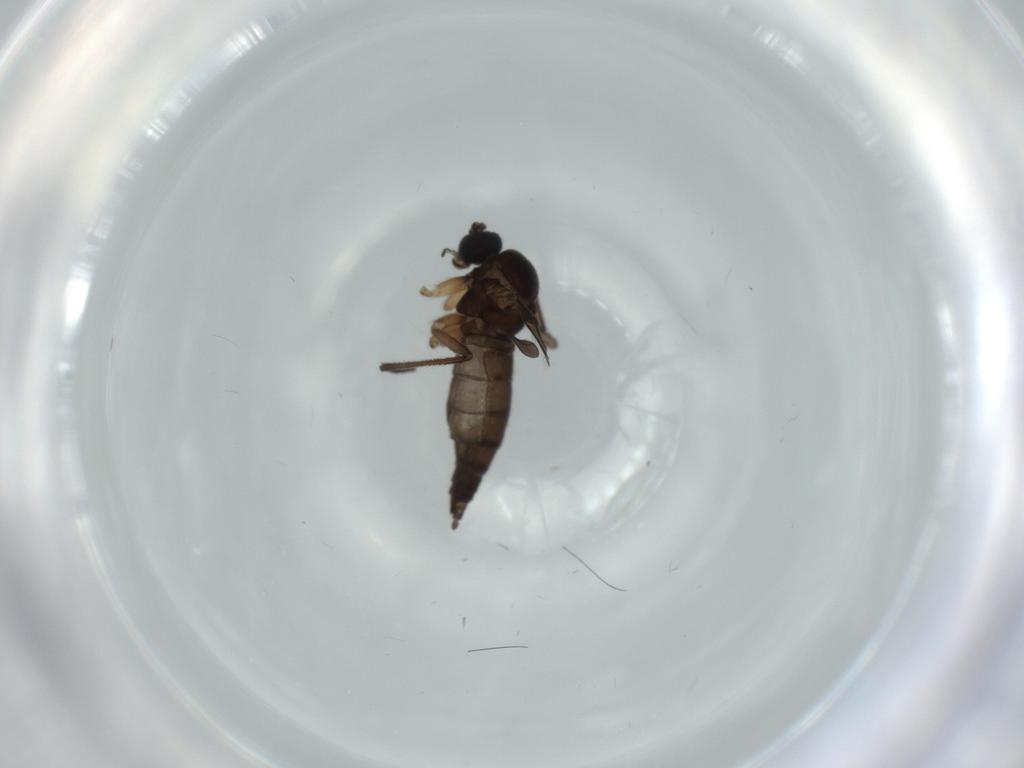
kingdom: Animalia
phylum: Arthropoda
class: Insecta
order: Diptera
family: Sciaridae
